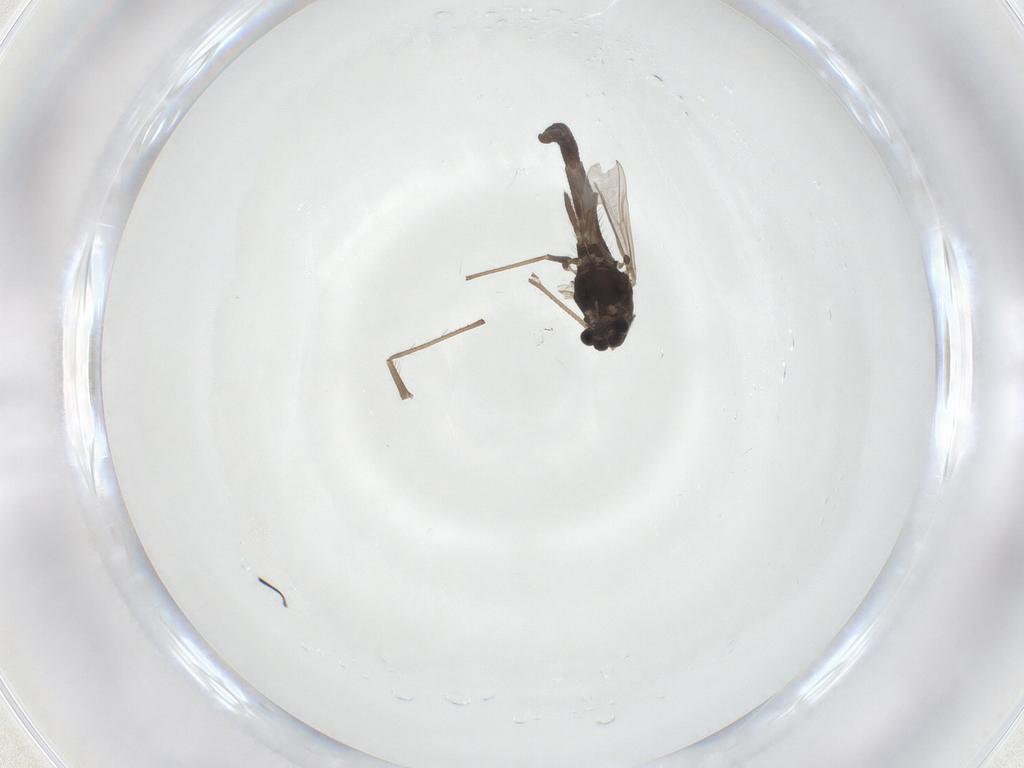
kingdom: Animalia
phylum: Arthropoda
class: Insecta
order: Diptera
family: Chironomidae
